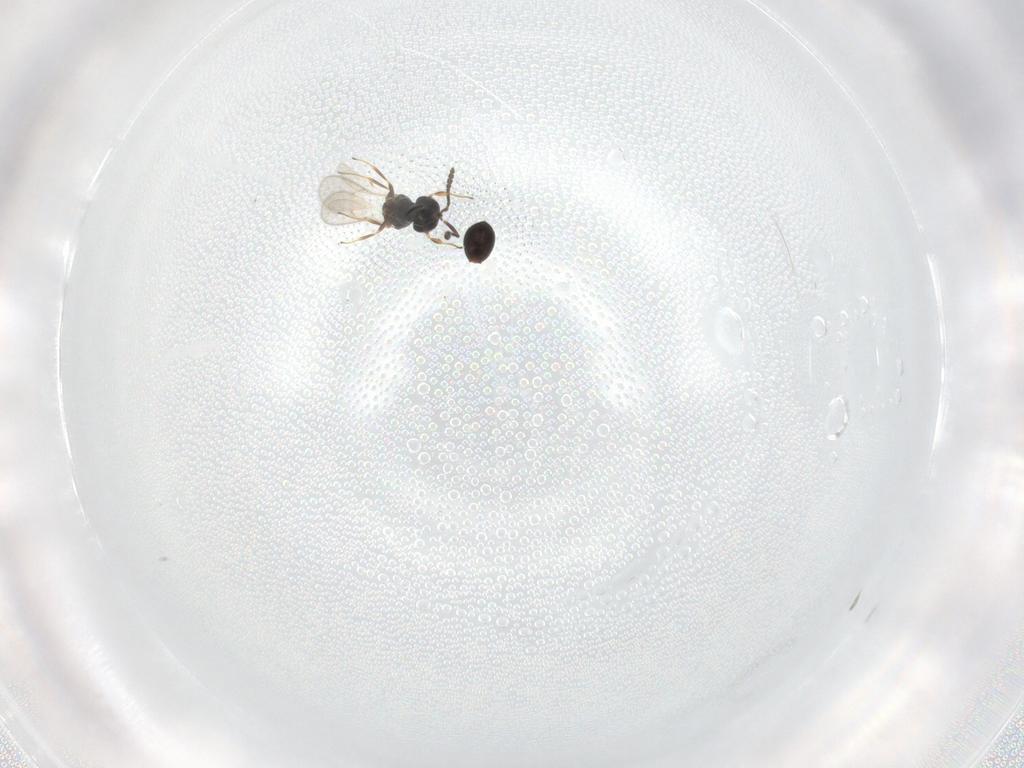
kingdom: Animalia
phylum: Arthropoda
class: Insecta
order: Hymenoptera
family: Scelionidae
